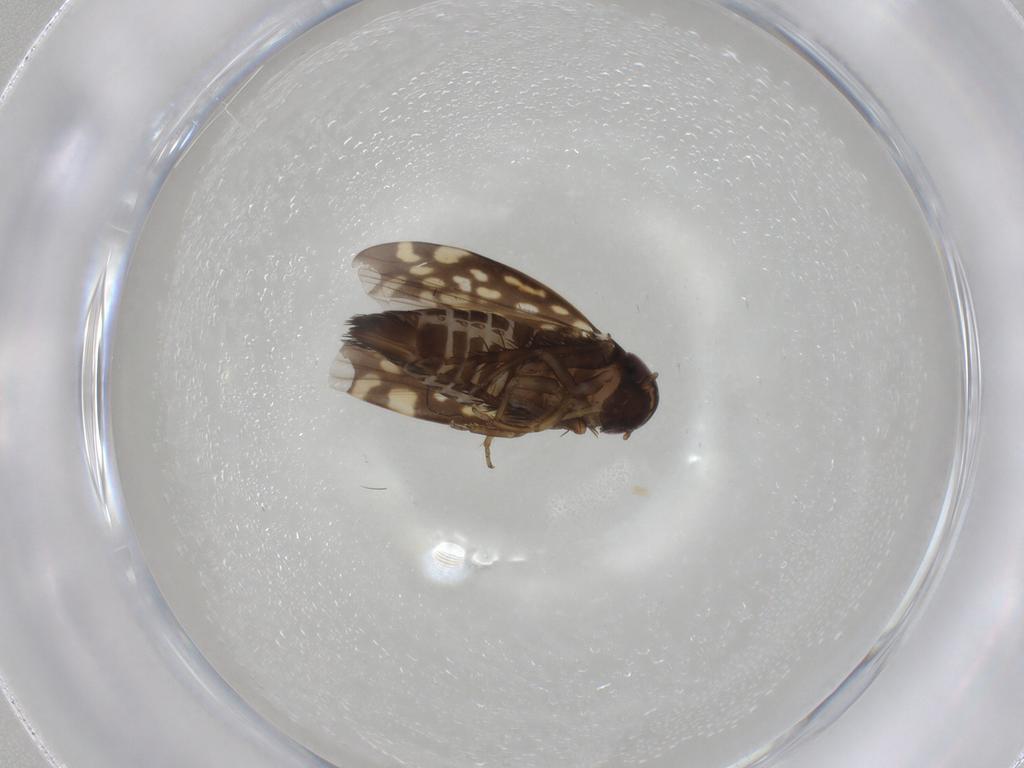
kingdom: Animalia
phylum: Arthropoda
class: Insecta
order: Hemiptera
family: Cicadellidae
